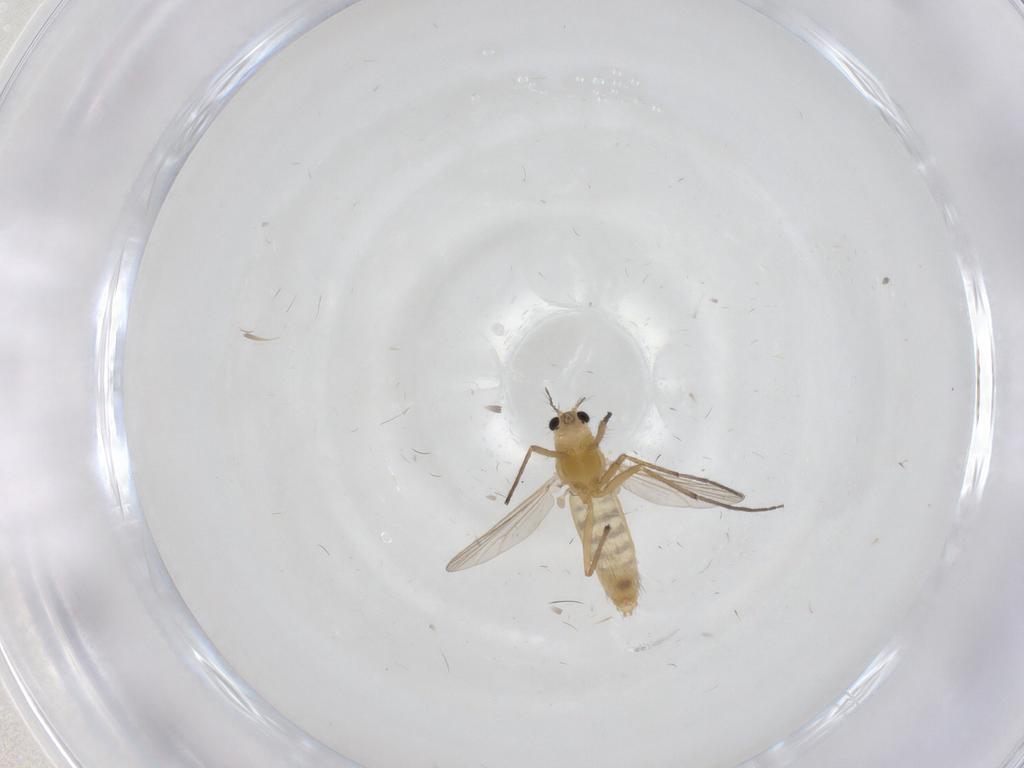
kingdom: Animalia
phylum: Arthropoda
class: Insecta
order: Diptera
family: Chironomidae
